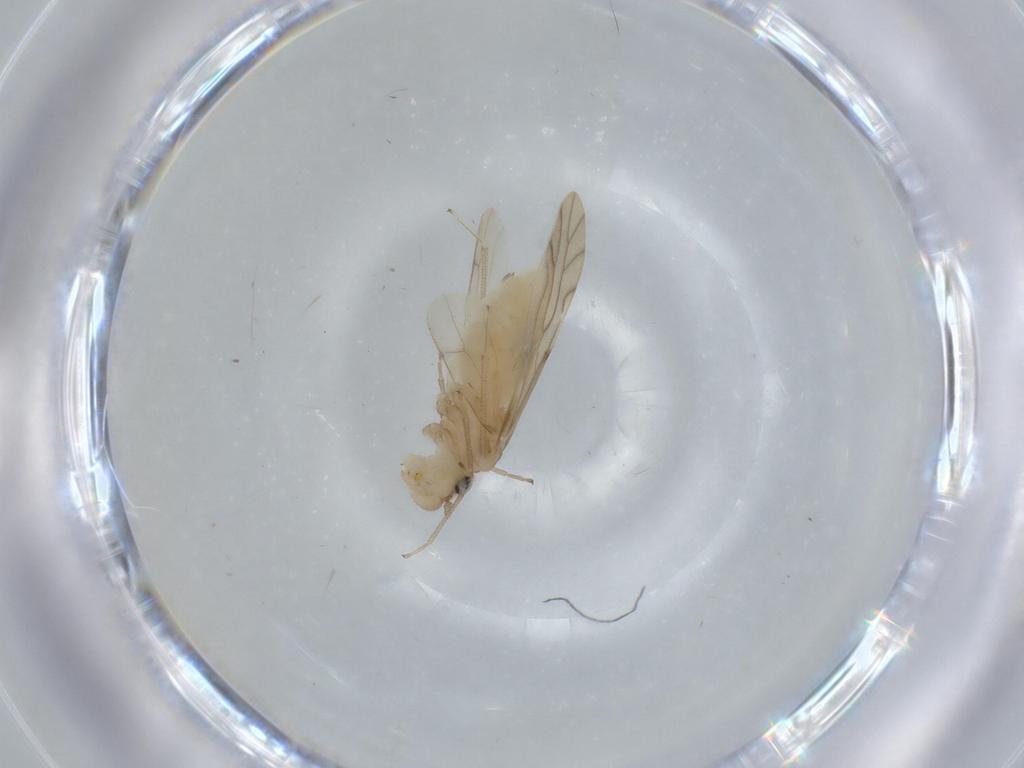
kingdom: Animalia
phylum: Arthropoda
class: Insecta
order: Psocodea
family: Caeciliusidae
